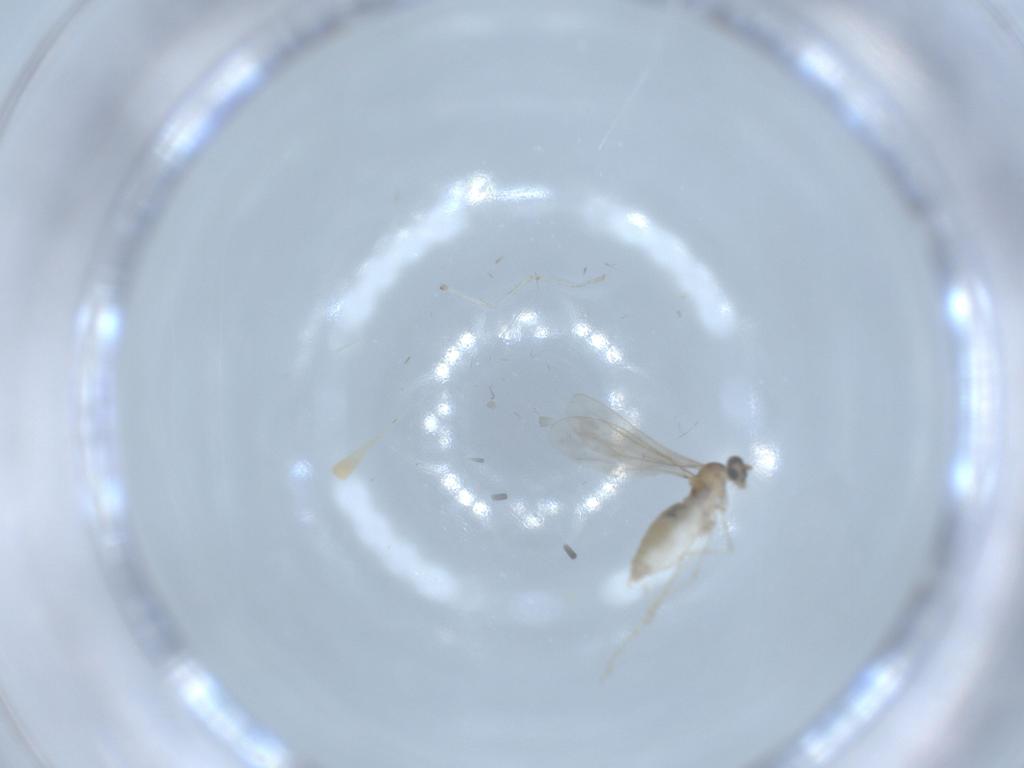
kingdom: Animalia
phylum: Arthropoda
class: Insecta
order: Diptera
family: Cecidomyiidae
